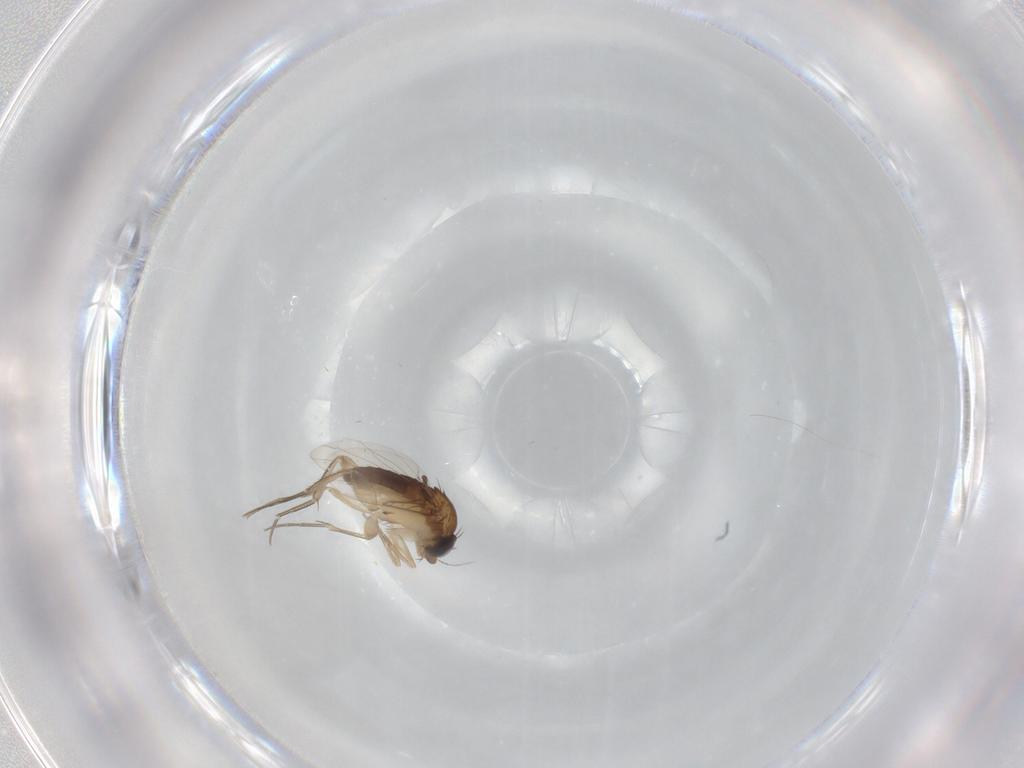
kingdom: Animalia
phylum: Arthropoda
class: Insecta
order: Diptera
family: Phoridae
